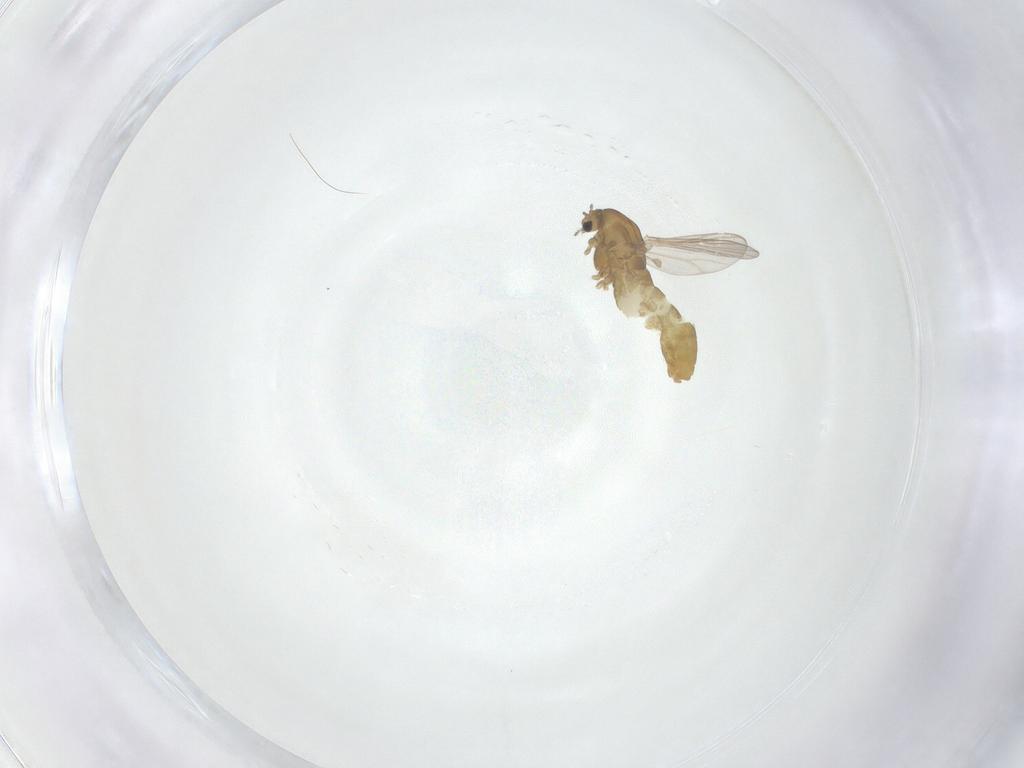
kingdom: Animalia
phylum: Arthropoda
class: Insecta
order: Diptera
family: Chironomidae
